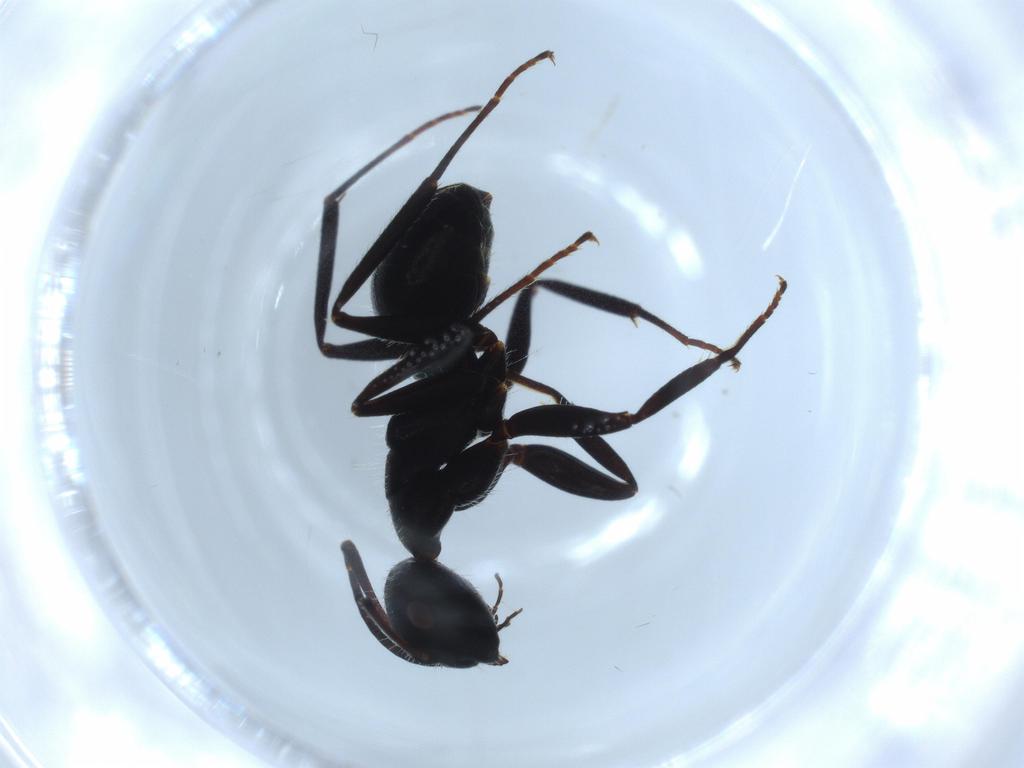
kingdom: Animalia
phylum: Arthropoda
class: Insecta
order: Hymenoptera
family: Formicidae
